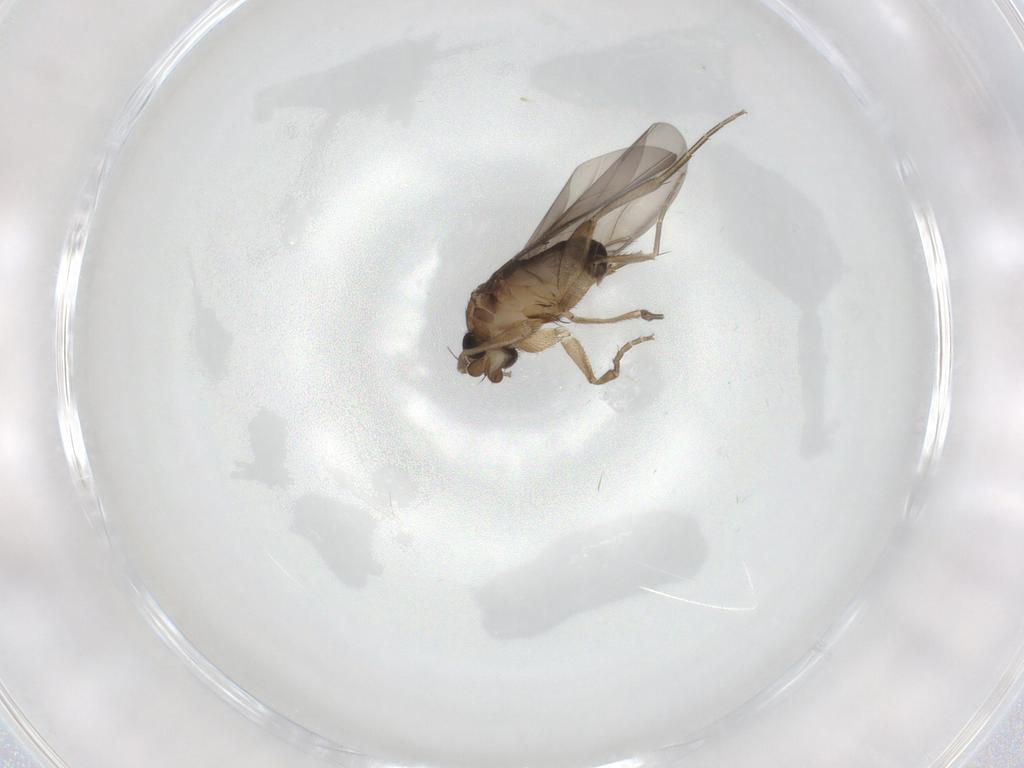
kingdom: Animalia
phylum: Arthropoda
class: Insecta
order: Diptera
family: Phoridae
